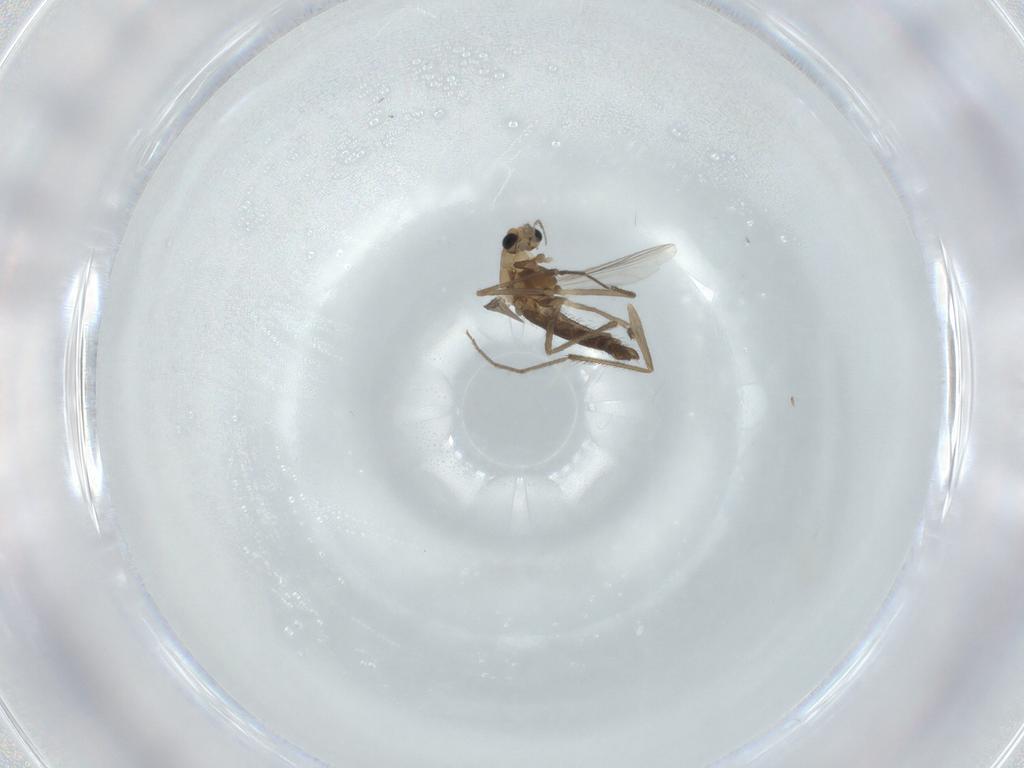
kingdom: Animalia
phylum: Arthropoda
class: Insecta
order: Diptera
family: Chironomidae
